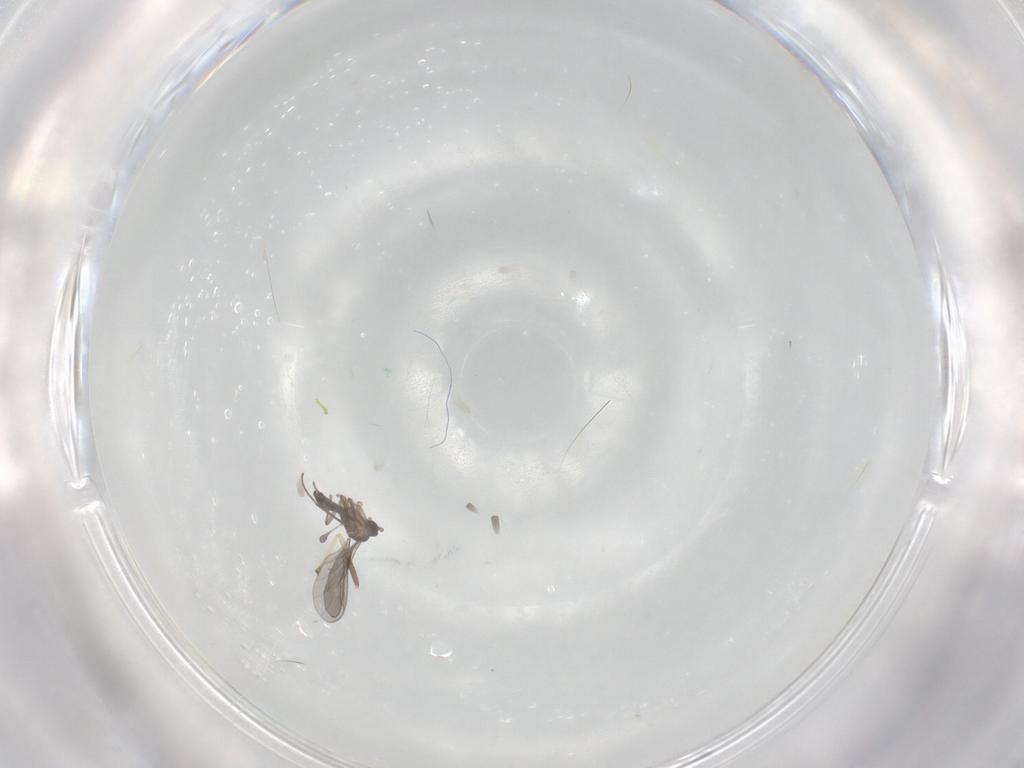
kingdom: Animalia
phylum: Arthropoda
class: Insecta
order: Diptera
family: Sciaridae
